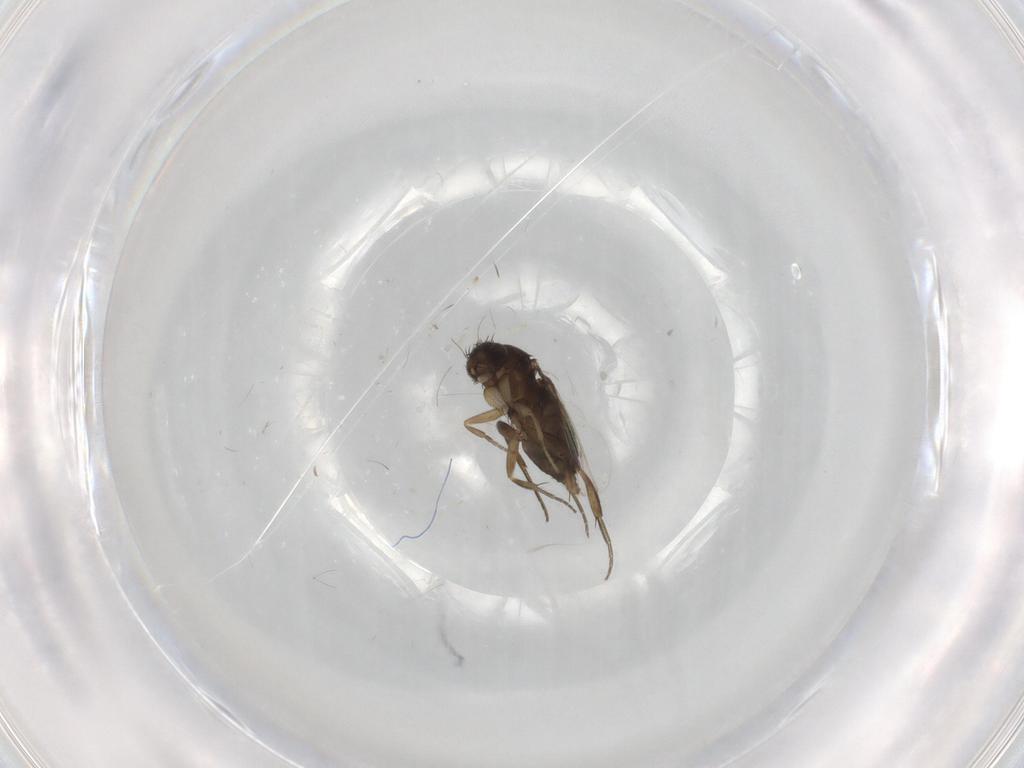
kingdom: Animalia
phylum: Arthropoda
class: Insecta
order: Diptera
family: Phoridae
